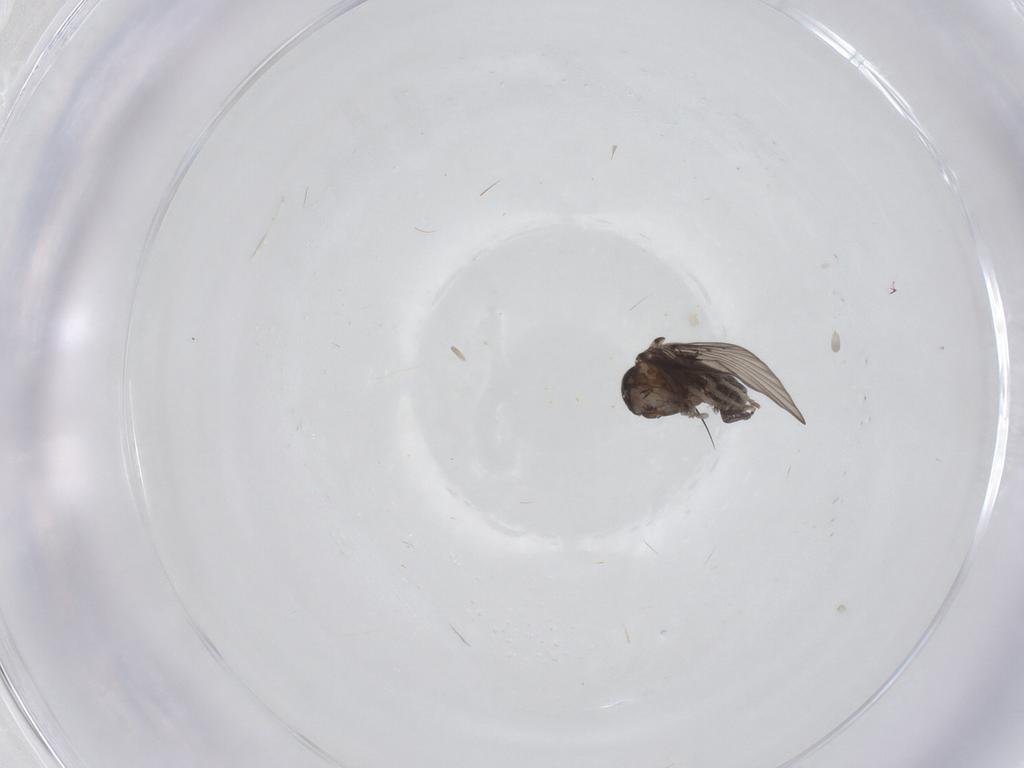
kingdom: Animalia
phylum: Arthropoda
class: Insecta
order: Diptera
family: Psychodidae
